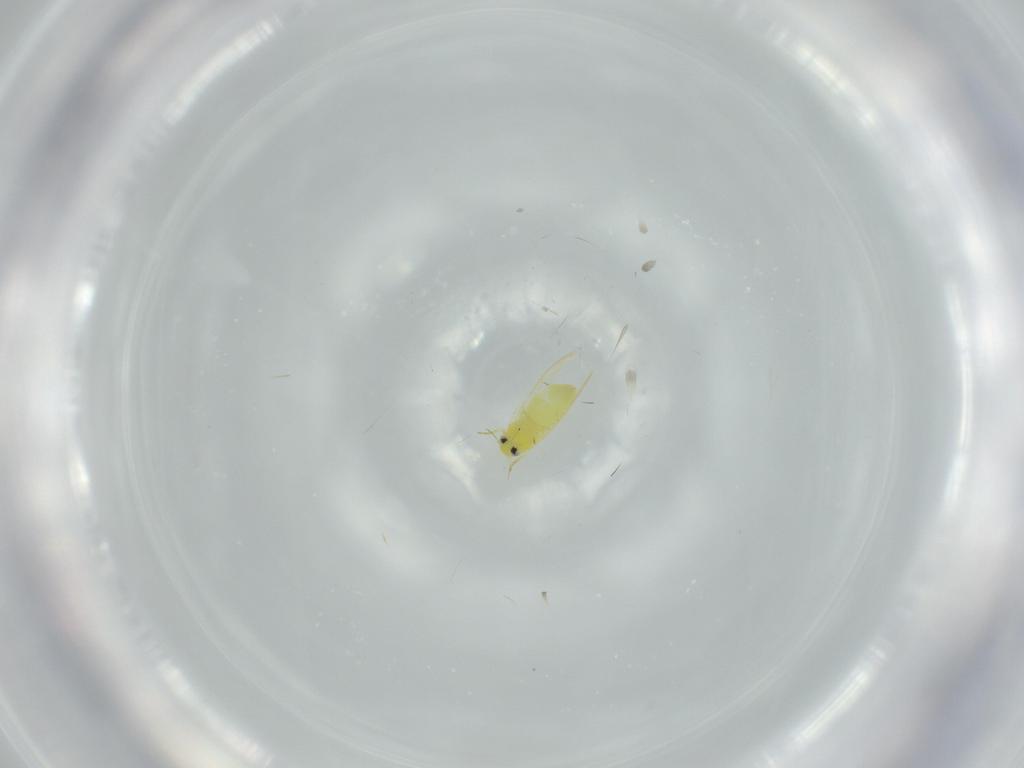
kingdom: Animalia
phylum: Arthropoda
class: Insecta
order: Hemiptera
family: Aleyrodidae
